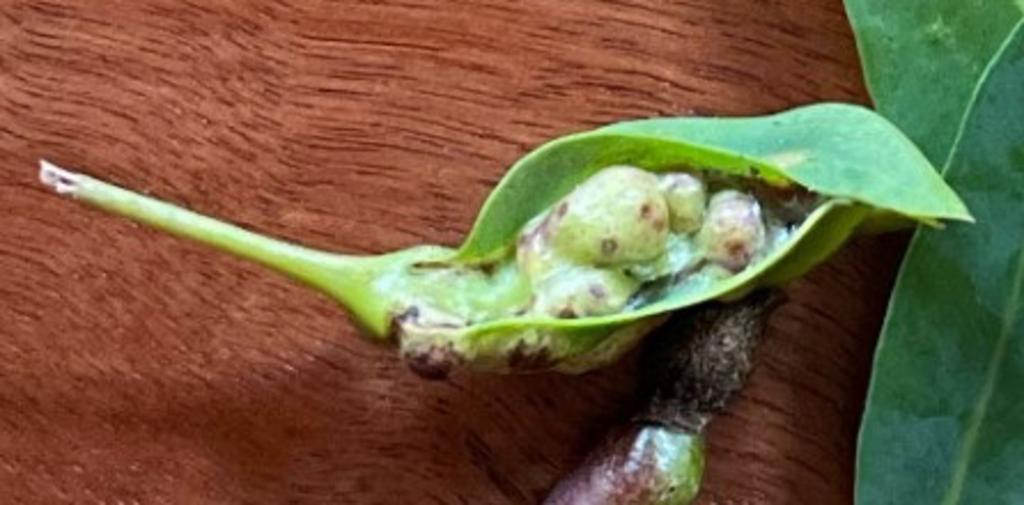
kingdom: Animalia
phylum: Arthropoda
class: Insecta
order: Diptera
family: Fergusoninidae
